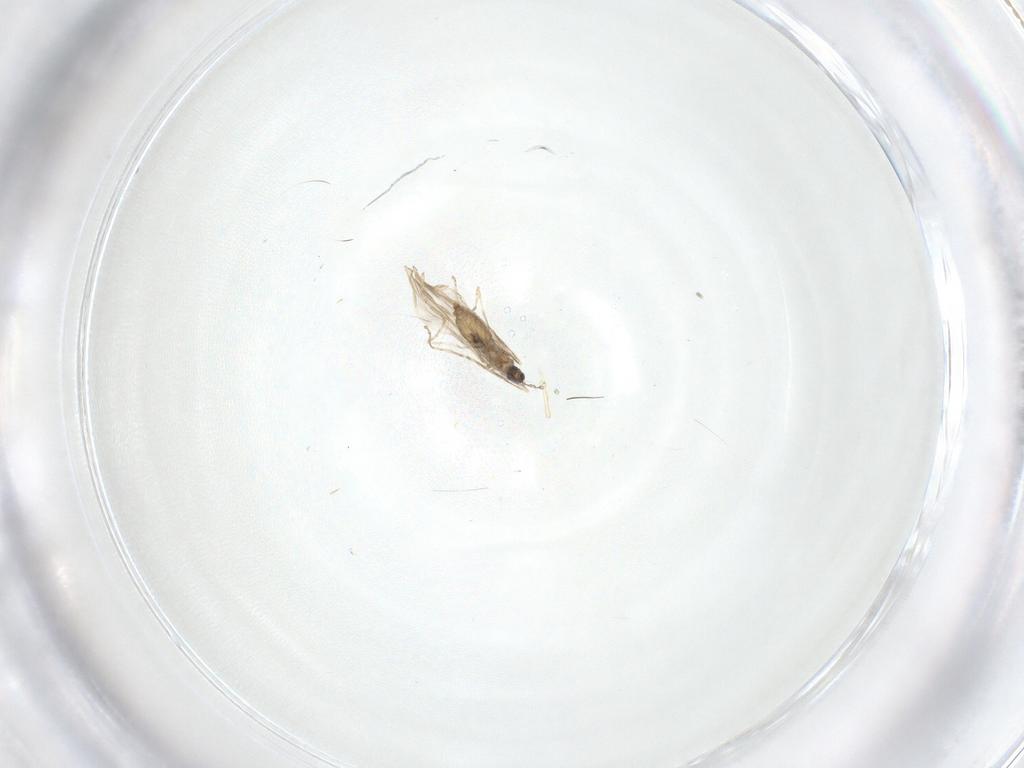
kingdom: Animalia
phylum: Arthropoda
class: Insecta
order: Diptera
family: Cecidomyiidae
